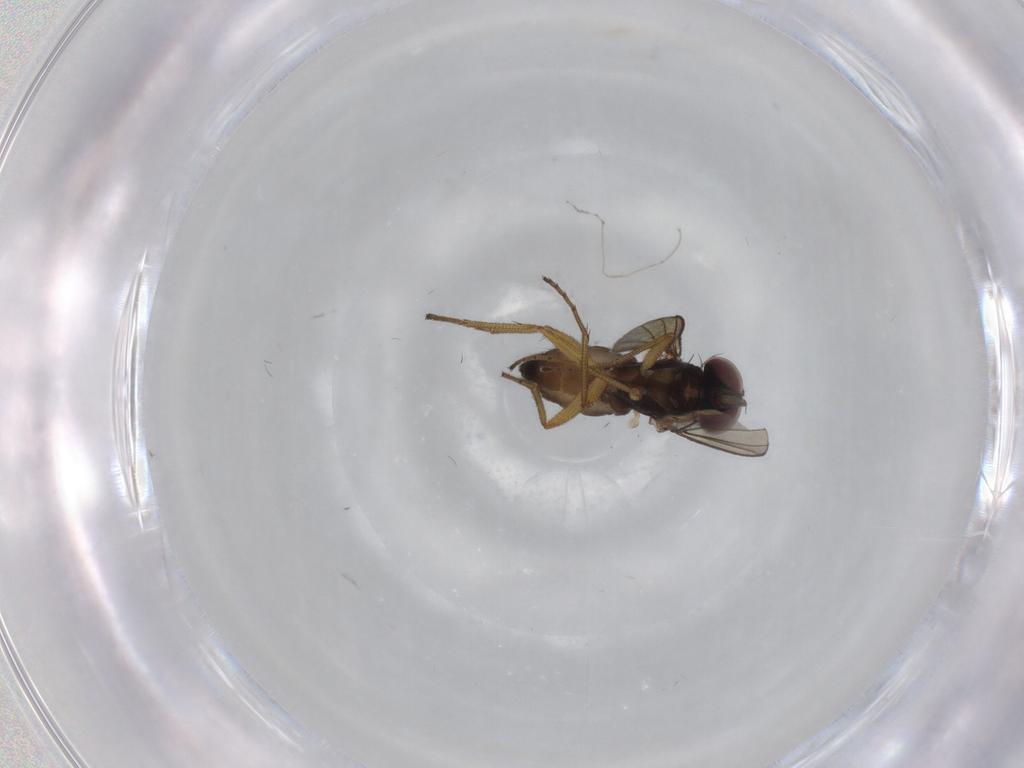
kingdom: Animalia
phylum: Arthropoda
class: Insecta
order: Diptera
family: Dolichopodidae
